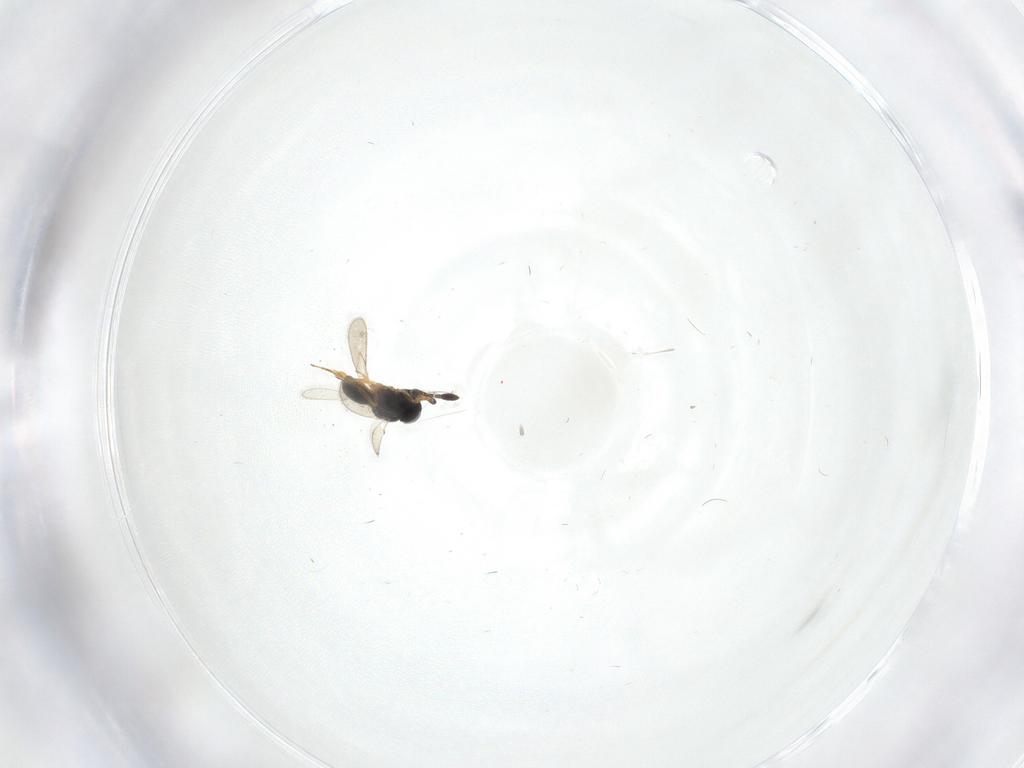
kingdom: Animalia
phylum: Arthropoda
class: Insecta
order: Hymenoptera
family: Scelionidae
